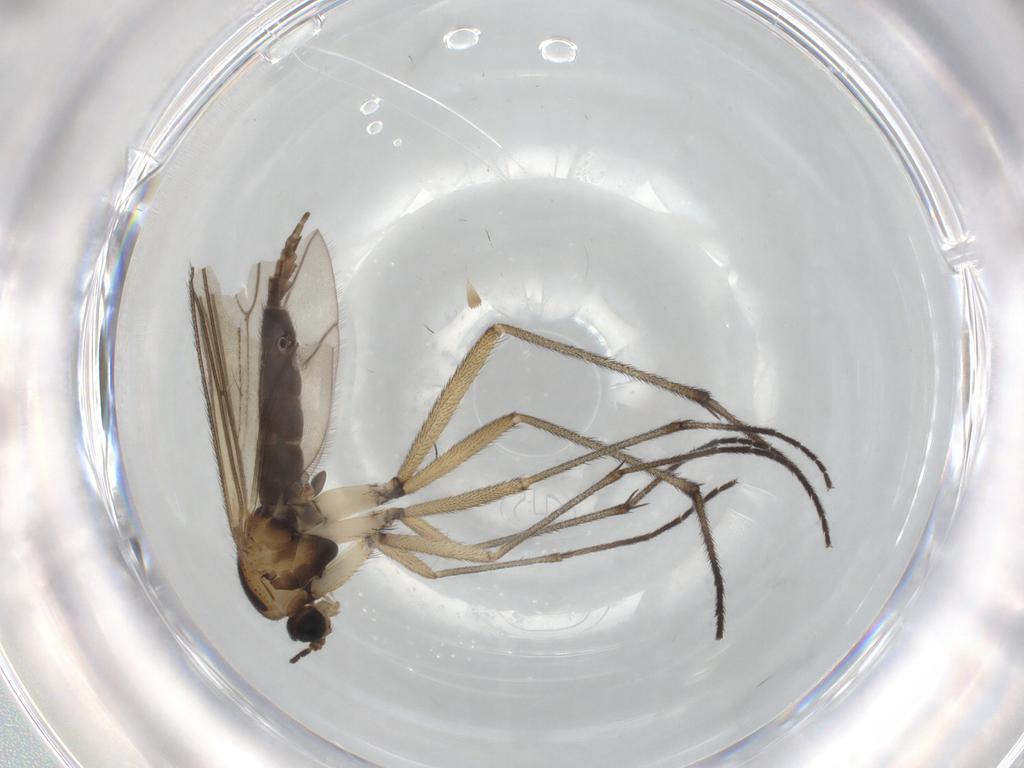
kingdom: Animalia
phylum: Arthropoda
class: Insecta
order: Diptera
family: Sciaridae
